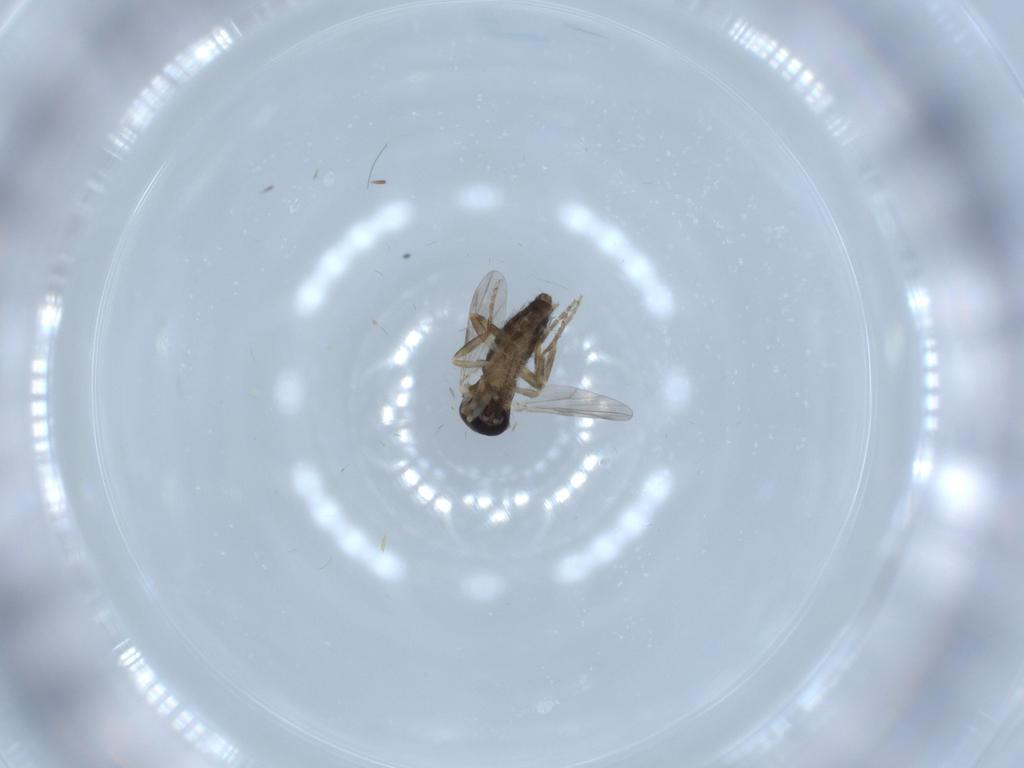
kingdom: Animalia
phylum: Arthropoda
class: Insecta
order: Diptera
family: Ceratopogonidae
